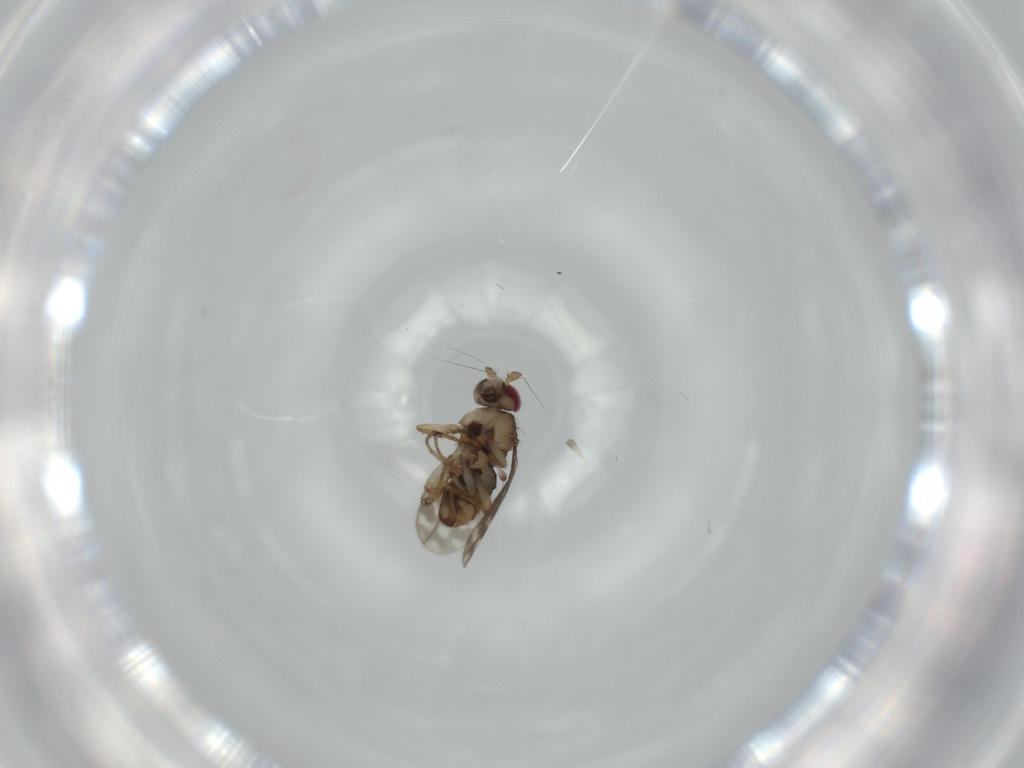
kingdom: Animalia
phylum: Arthropoda
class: Insecta
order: Diptera
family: Sphaeroceridae
